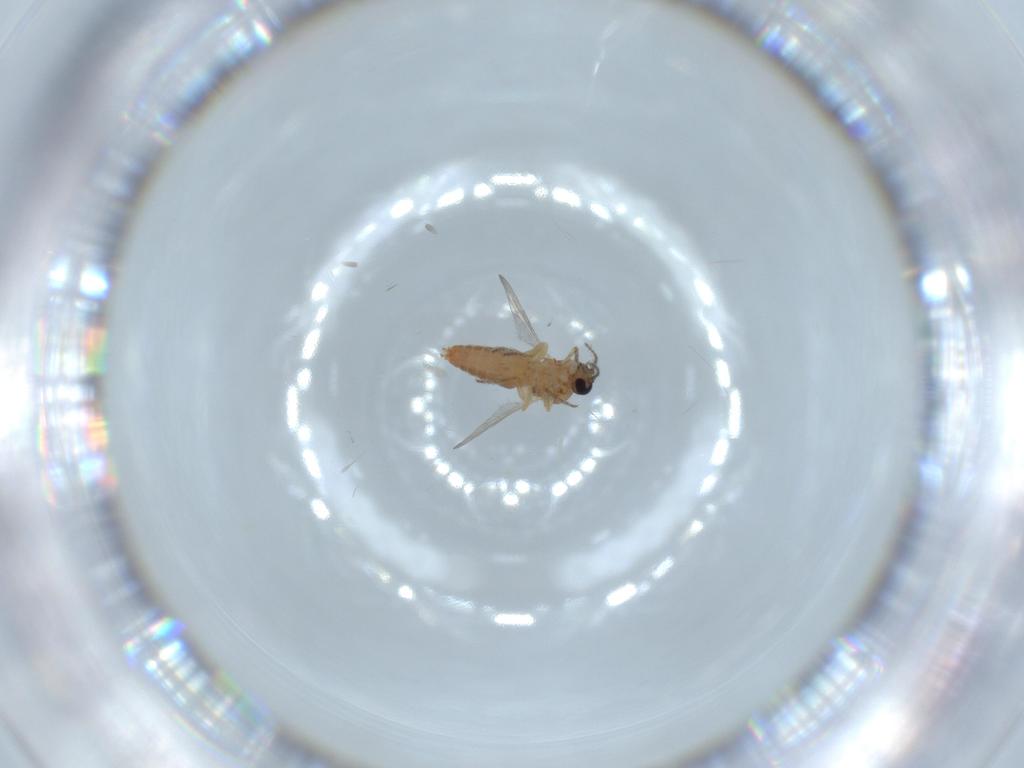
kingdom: Animalia
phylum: Arthropoda
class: Insecta
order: Diptera
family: Ceratopogonidae
